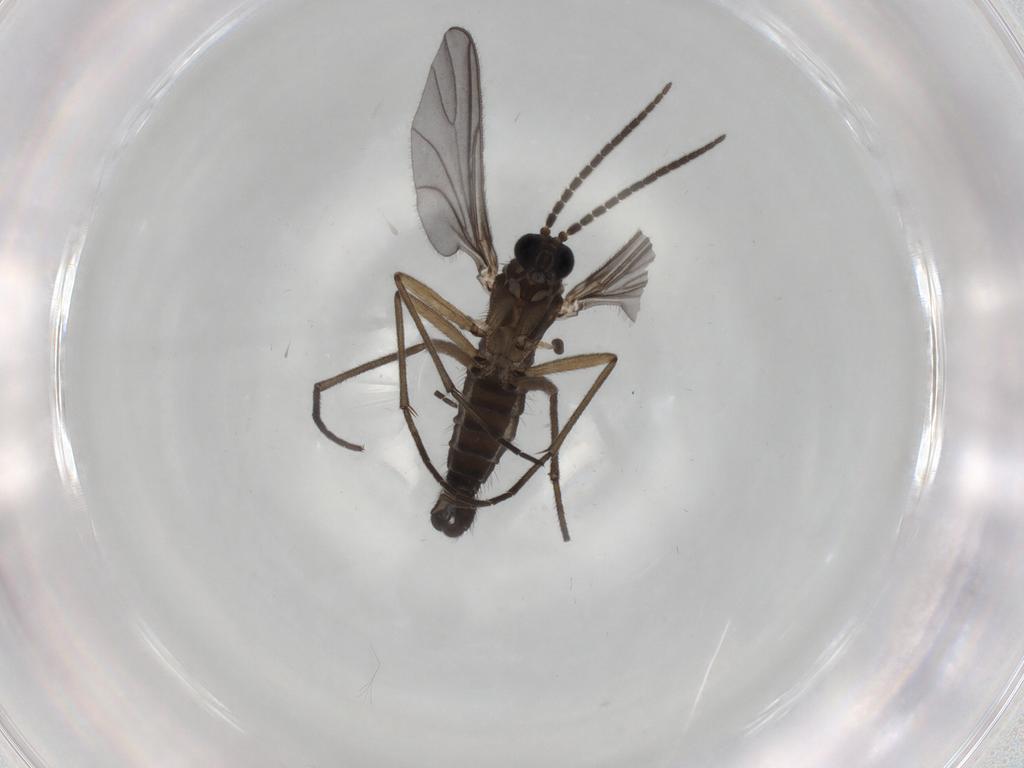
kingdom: Animalia
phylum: Arthropoda
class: Insecta
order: Diptera
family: Sciaridae
